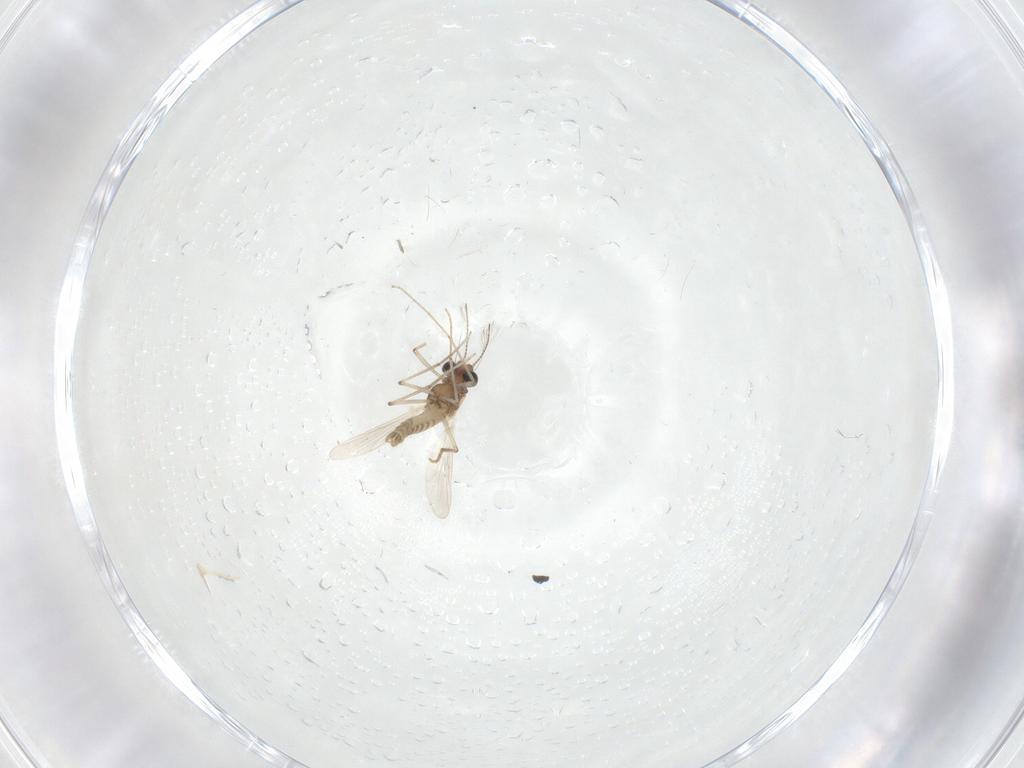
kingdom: Animalia
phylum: Arthropoda
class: Insecta
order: Diptera
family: Chironomidae
